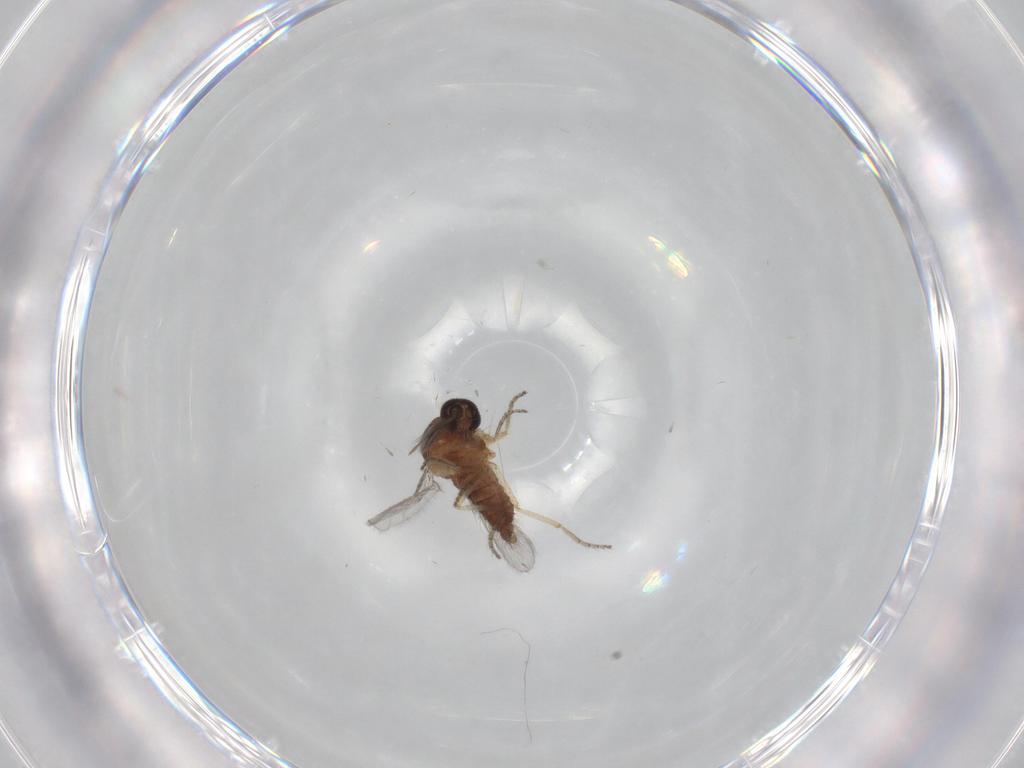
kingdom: Animalia
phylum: Arthropoda
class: Insecta
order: Diptera
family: Ceratopogonidae
